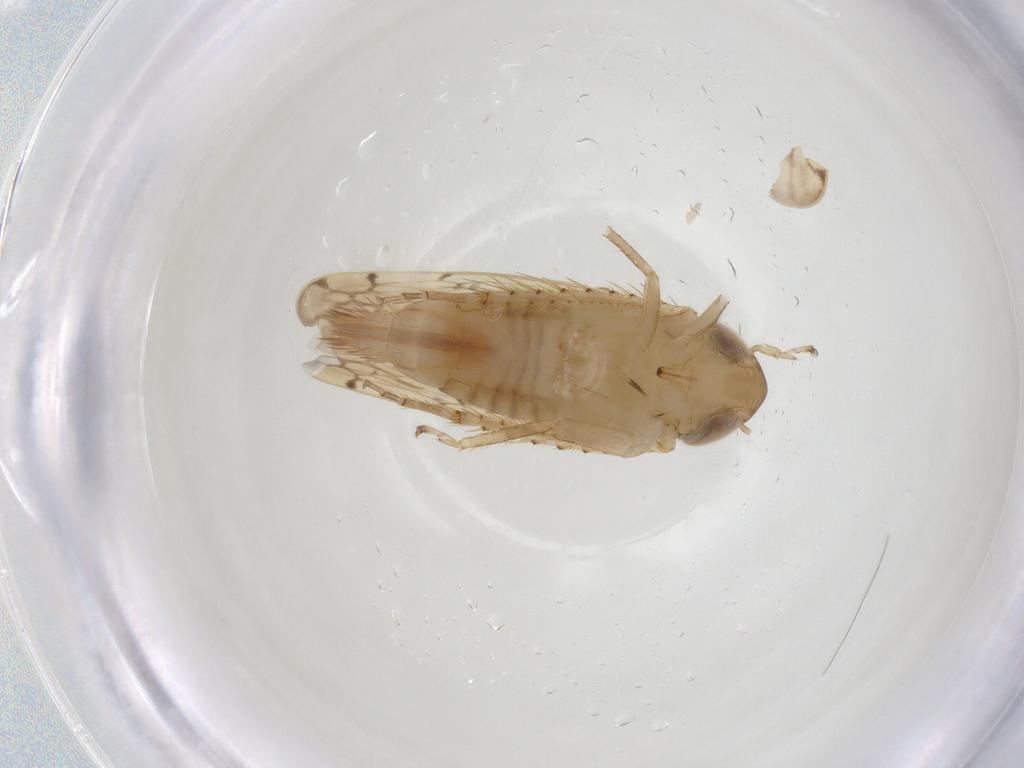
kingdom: Animalia
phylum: Arthropoda
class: Insecta
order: Hemiptera
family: Cicadellidae
